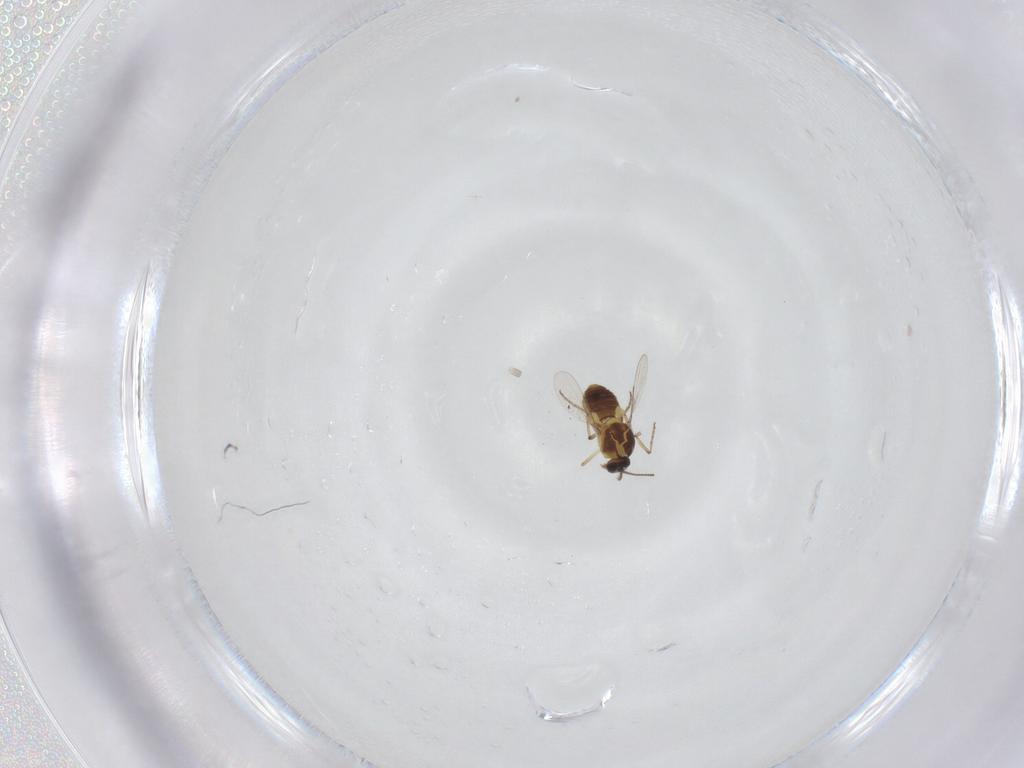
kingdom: Animalia
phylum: Arthropoda
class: Insecta
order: Diptera
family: Ceratopogonidae
